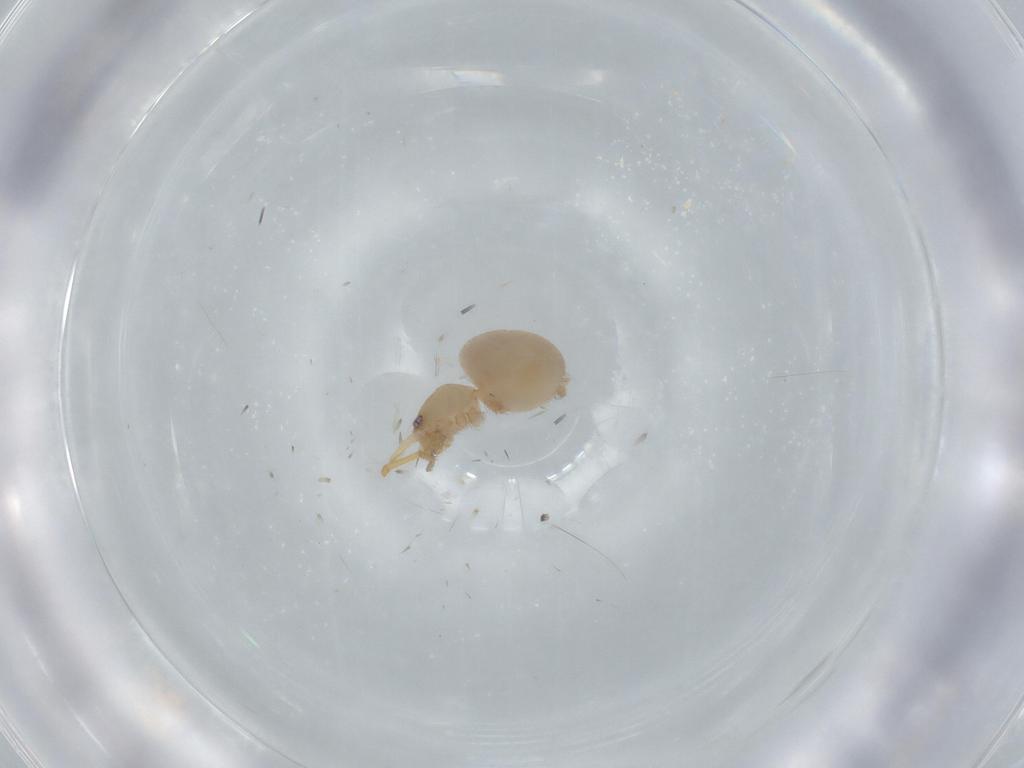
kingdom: Animalia
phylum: Arthropoda
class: Arachnida
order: Araneae
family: Oonopidae
